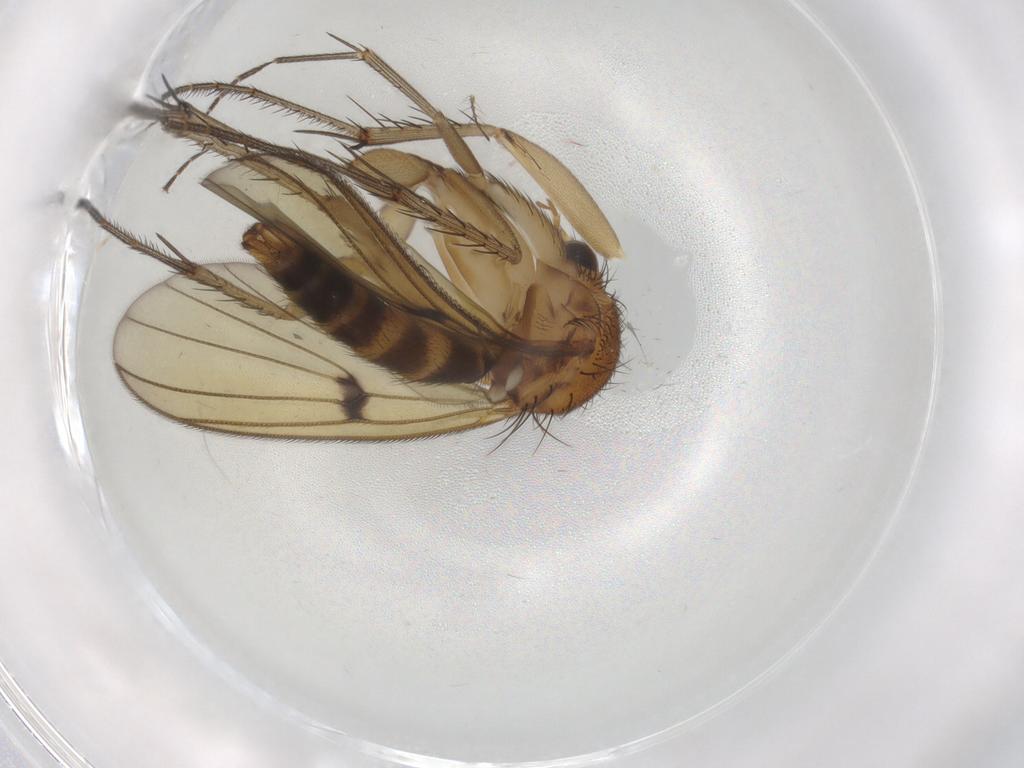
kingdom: Animalia
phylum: Arthropoda
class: Insecta
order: Diptera
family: Mycetophilidae
